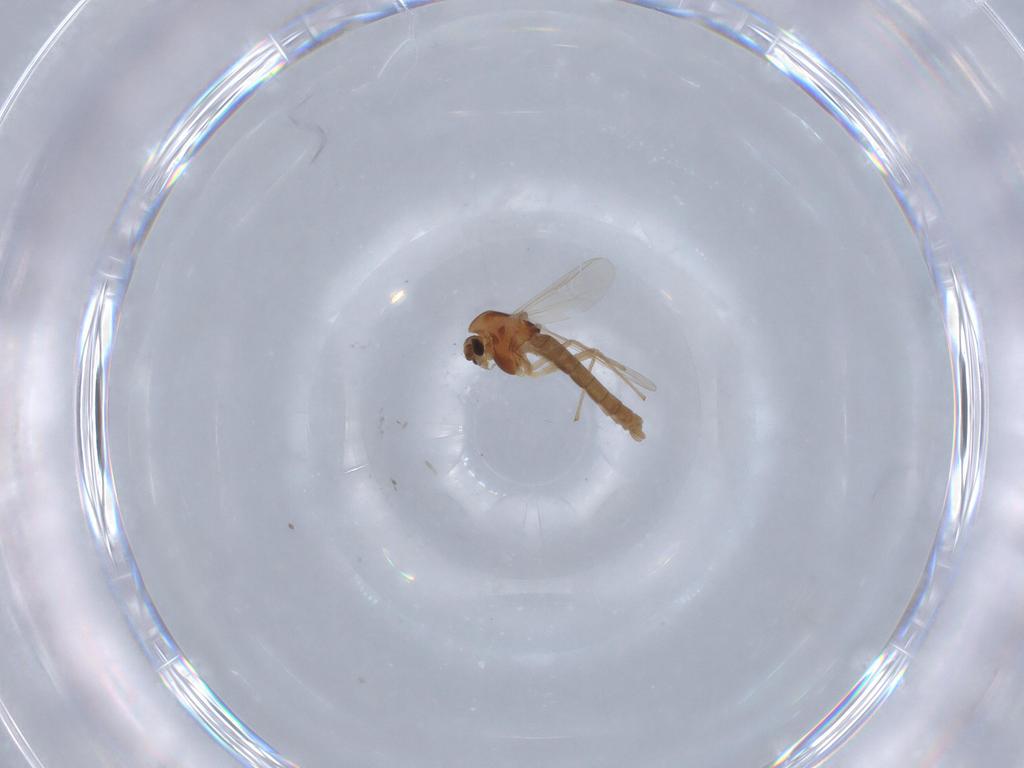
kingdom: Animalia
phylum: Arthropoda
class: Insecta
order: Diptera
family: Chironomidae
